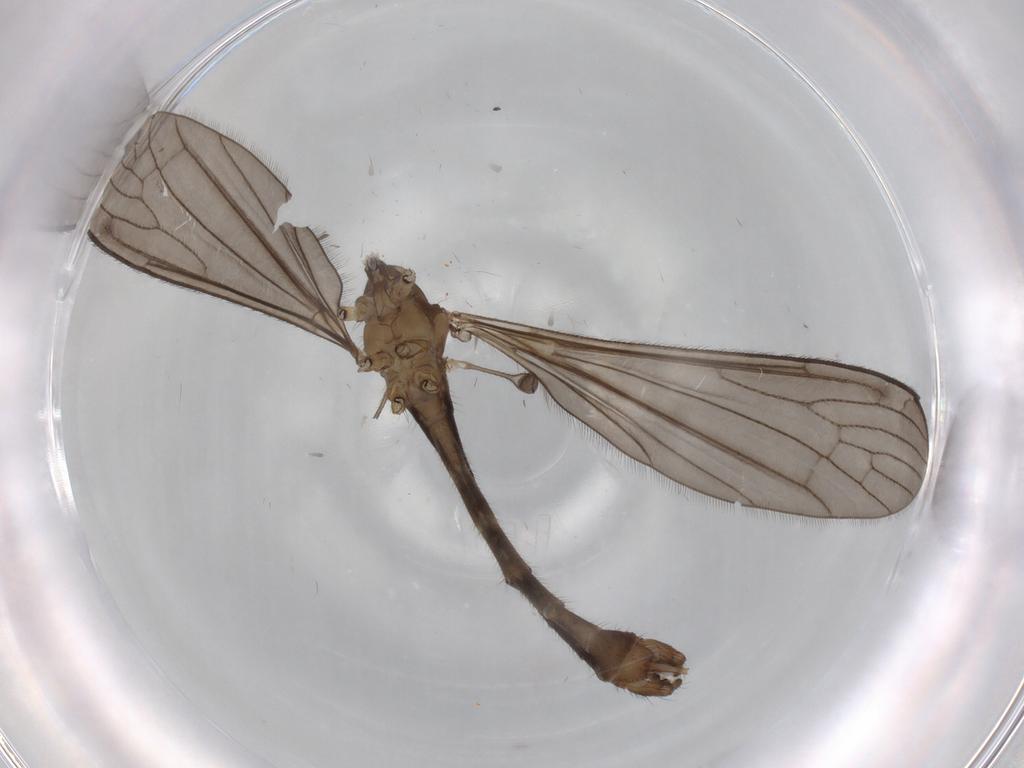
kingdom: Animalia
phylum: Arthropoda
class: Insecta
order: Diptera
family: Limoniidae
